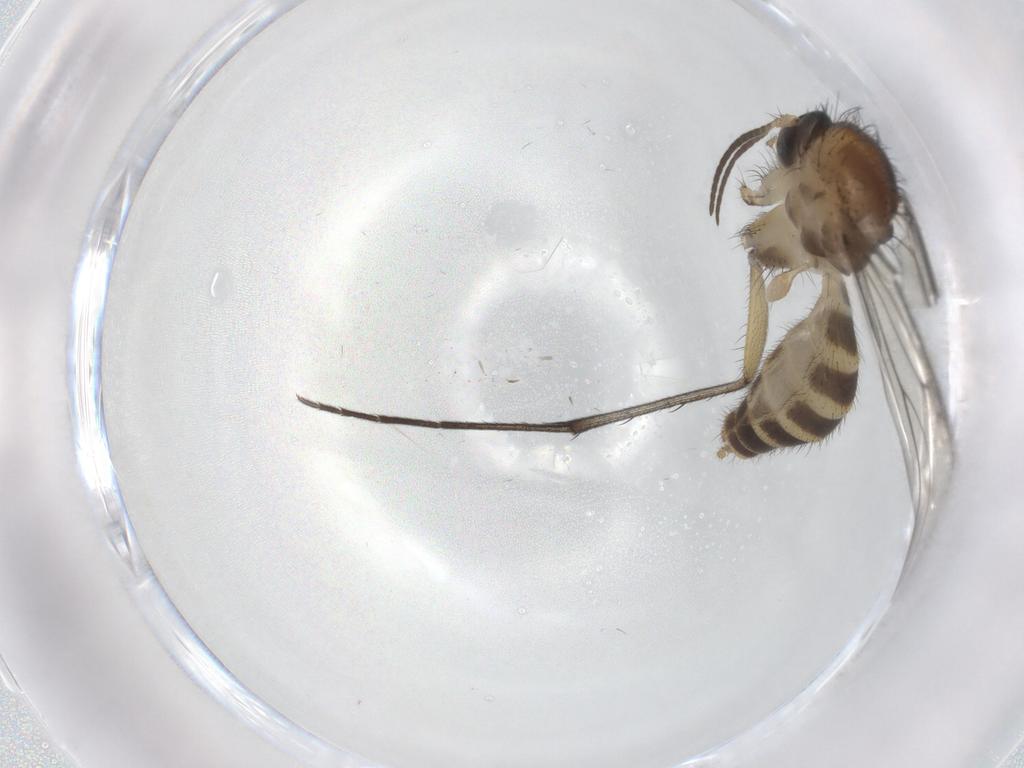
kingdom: Animalia
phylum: Arthropoda
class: Insecta
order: Diptera
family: Mycetophilidae
